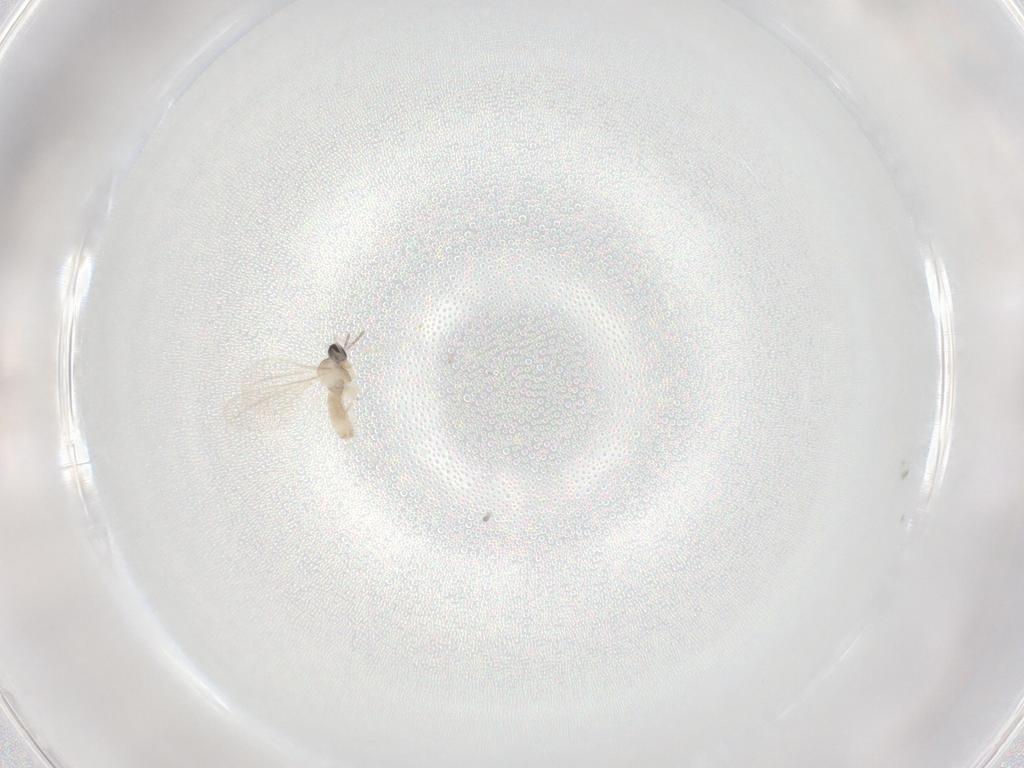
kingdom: Animalia
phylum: Arthropoda
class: Insecta
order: Diptera
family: Cecidomyiidae
